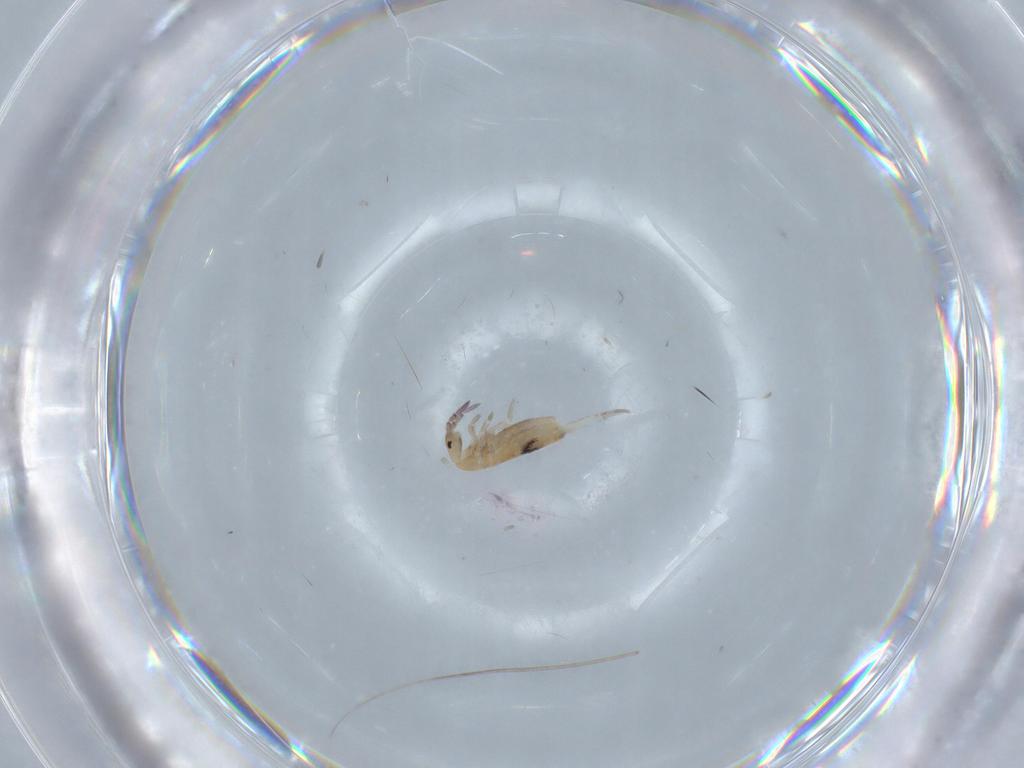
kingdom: Animalia
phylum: Arthropoda
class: Collembola
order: Entomobryomorpha
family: Entomobryidae
